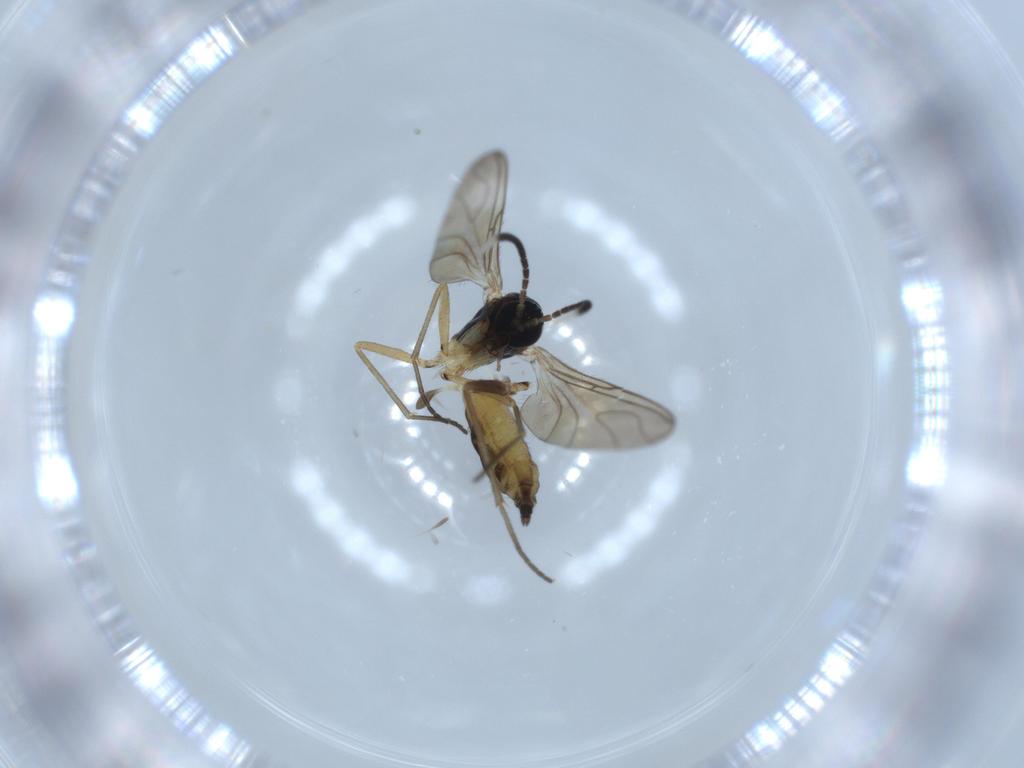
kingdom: Animalia
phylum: Arthropoda
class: Insecta
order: Diptera
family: Sciaridae
